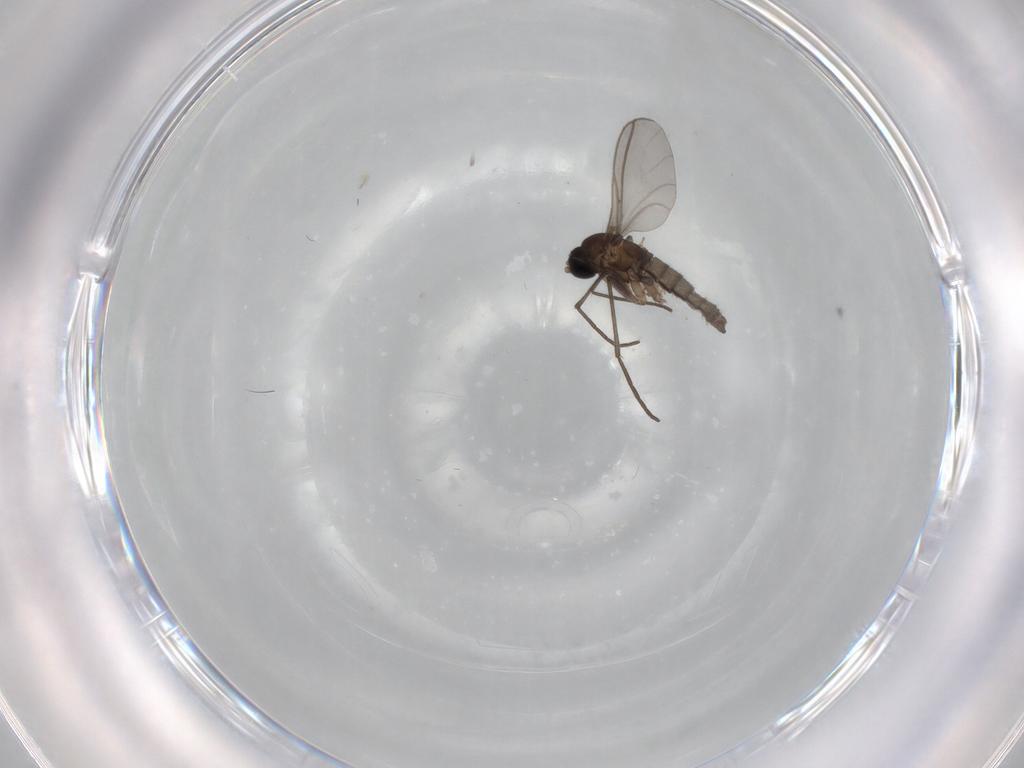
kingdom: Animalia
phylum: Arthropoda
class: Insecta
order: Diptera
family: Sciaridae
